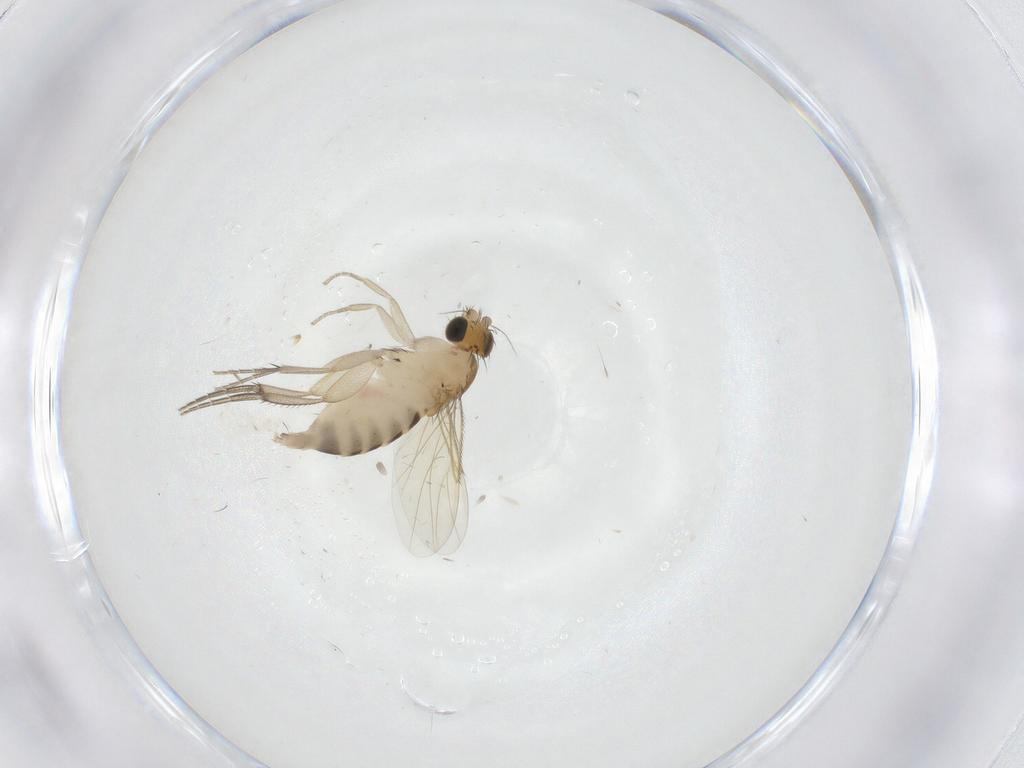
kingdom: Animalia
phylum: Arthropoda
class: Insecta
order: Diptera
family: Phoridae
